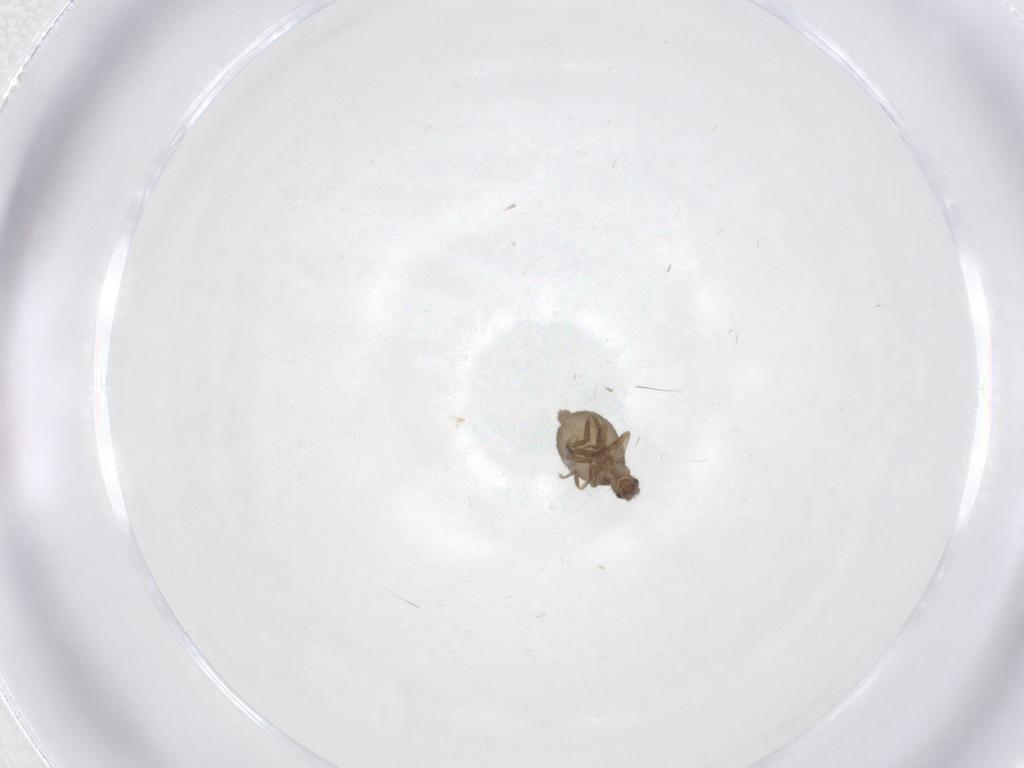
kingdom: Animalia
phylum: Arthropoda
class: Insecta
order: Diptera
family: Phoridae
